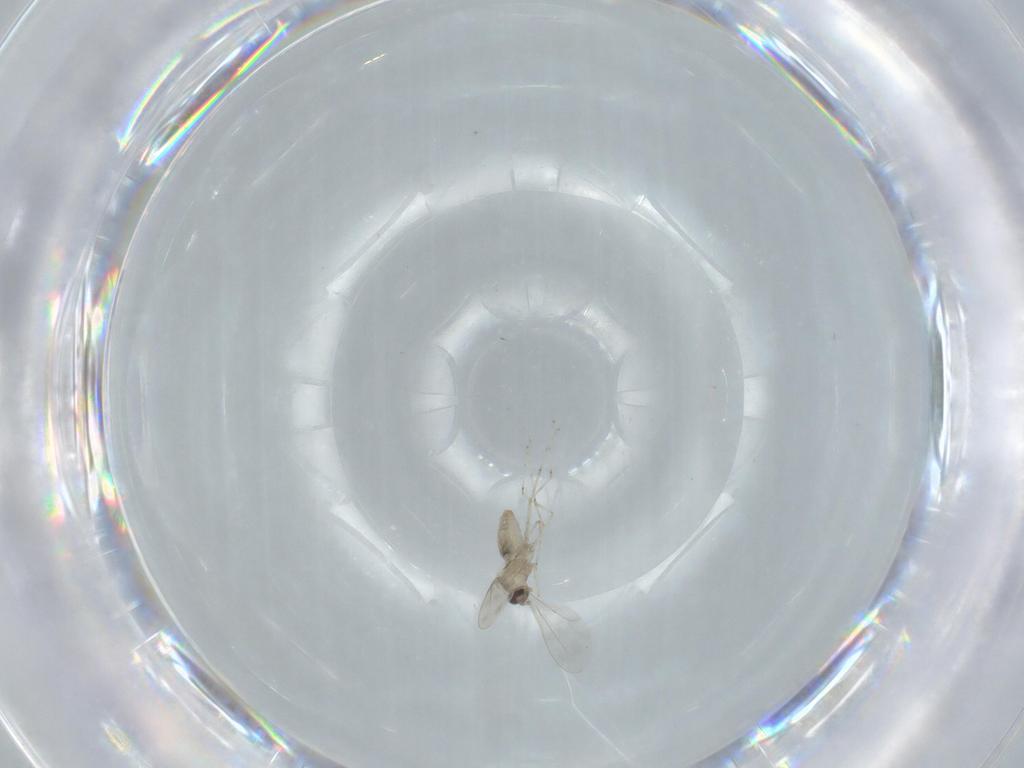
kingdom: Animalia
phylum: Arthropoda
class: Insecta
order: Diptera
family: Cecidomyiidae
